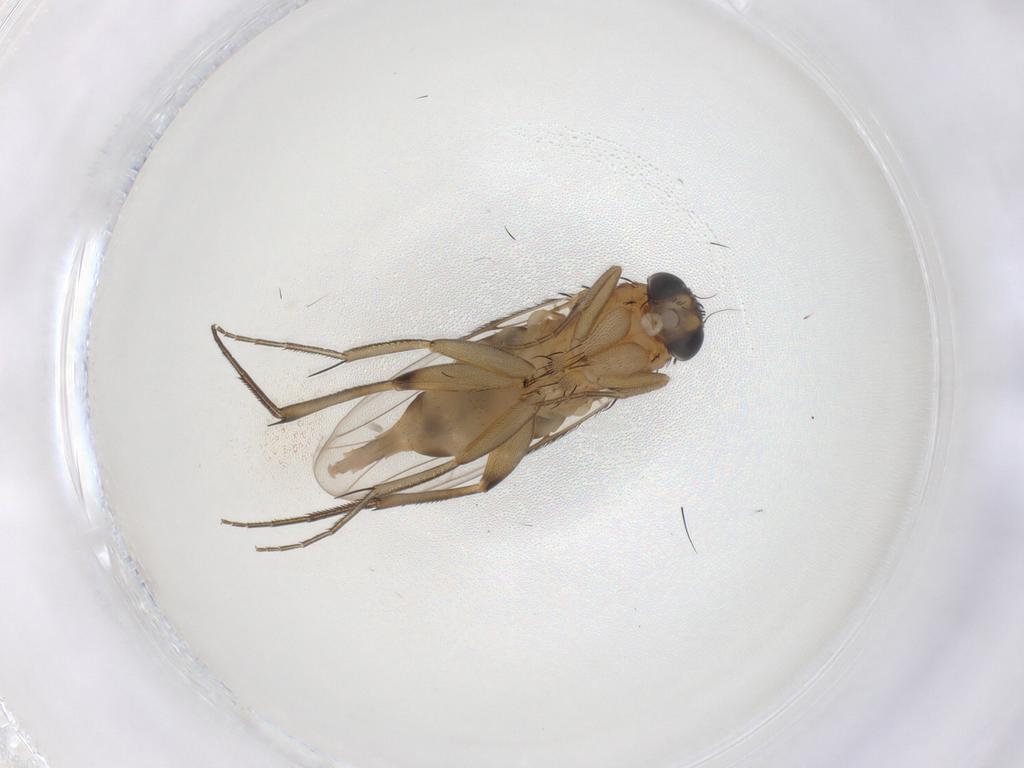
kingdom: Animalia
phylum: Arthropoda
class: Insecta
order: Diptera
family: Phoridae
